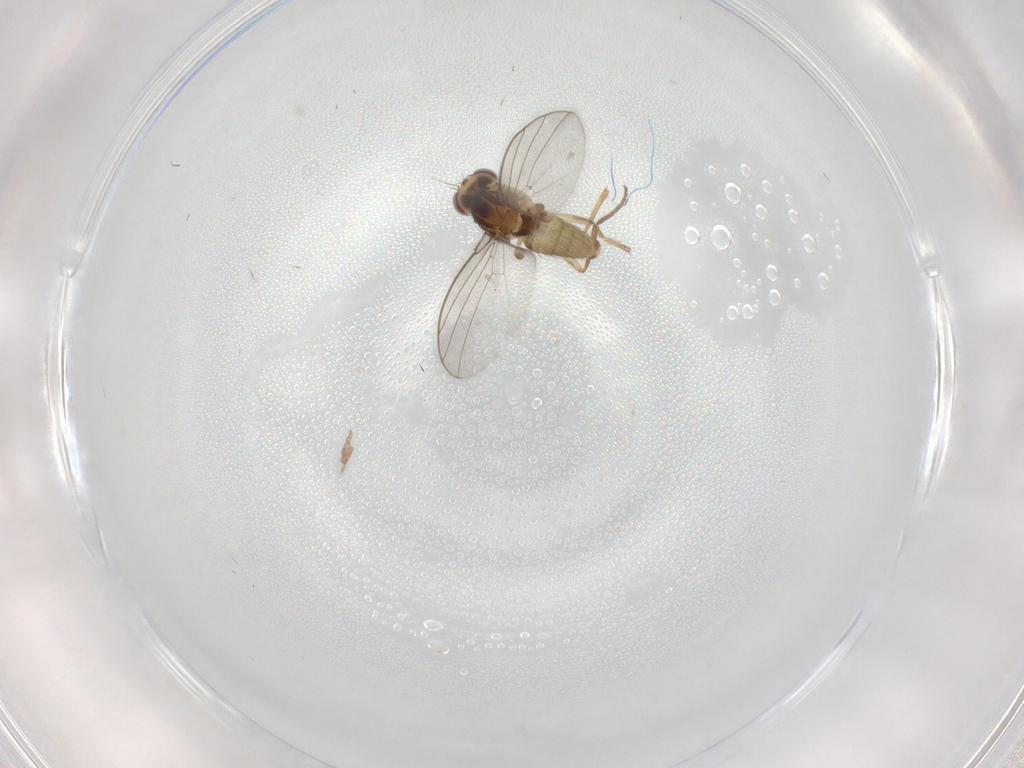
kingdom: Animalia
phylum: Arthropoda
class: Insecta
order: Diptera
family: Agromyzidae
